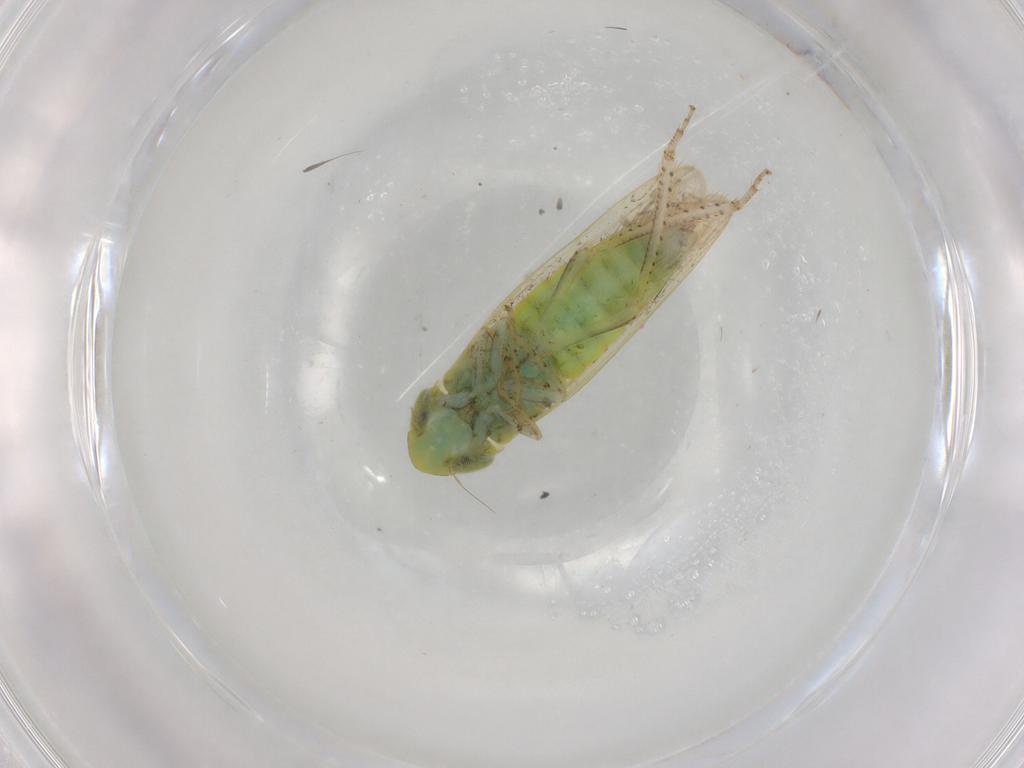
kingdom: Animalia
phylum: Arthropoda
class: Insecta
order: Hemiptera
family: Cicadellidae
